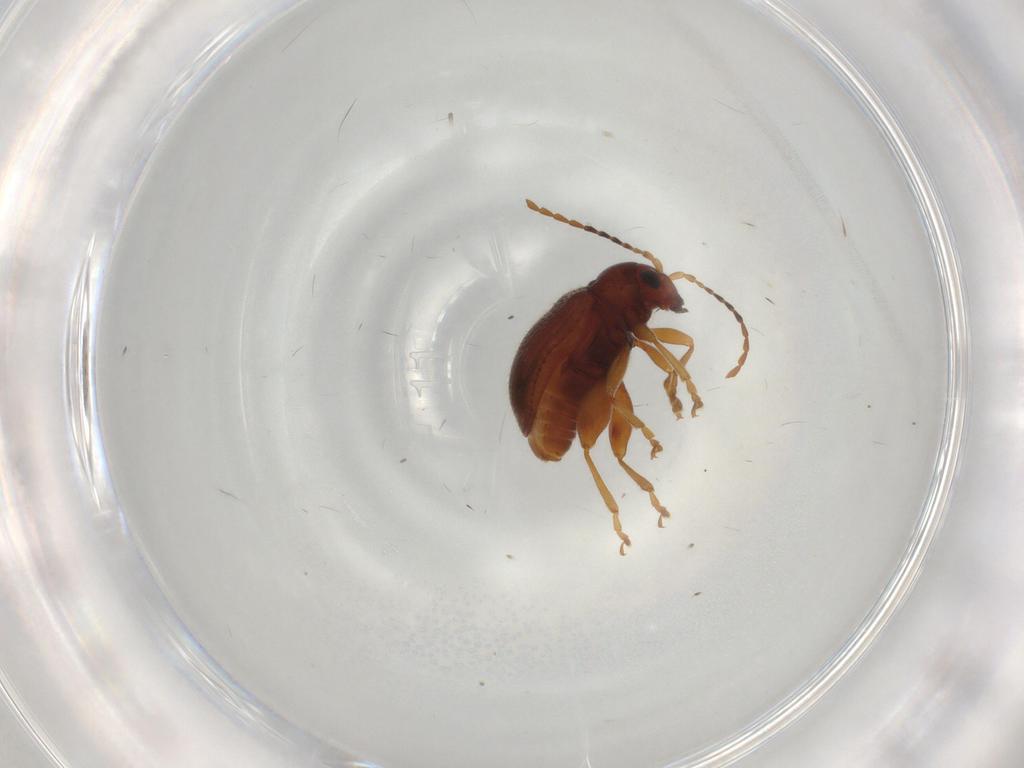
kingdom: Animalia
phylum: Arthropoda
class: Insecta
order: Coleoptera
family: Chrysomelidae
